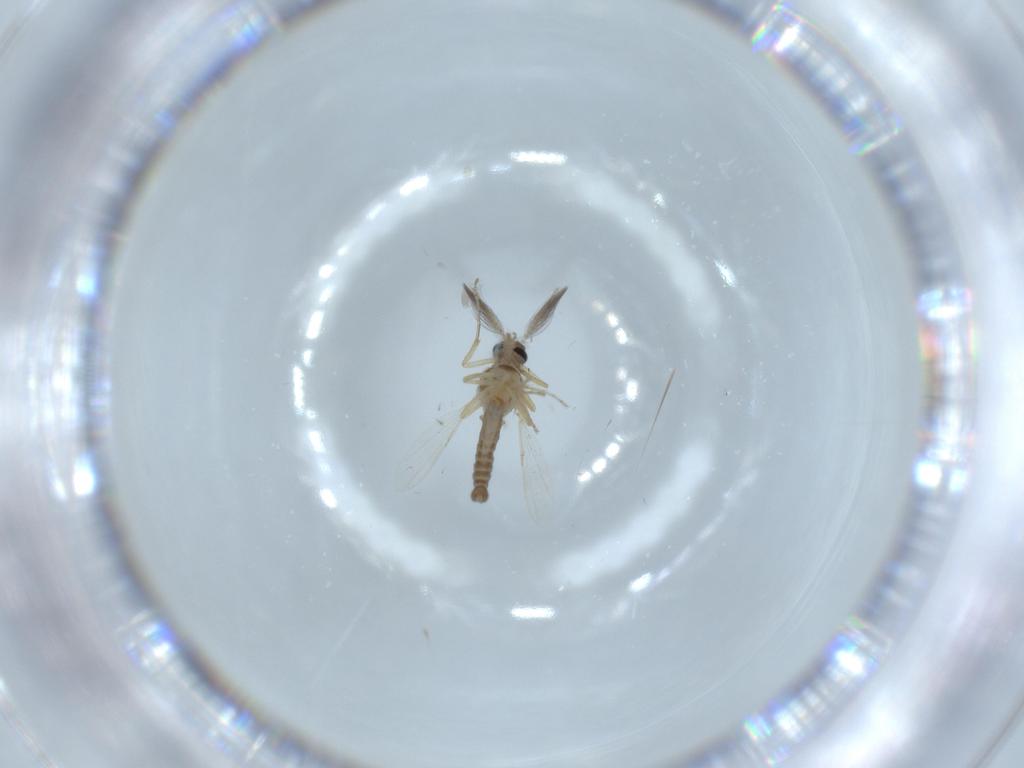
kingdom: Animalia
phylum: Arthropoda
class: Insecta
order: Diptera
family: Ceratopogonidae
